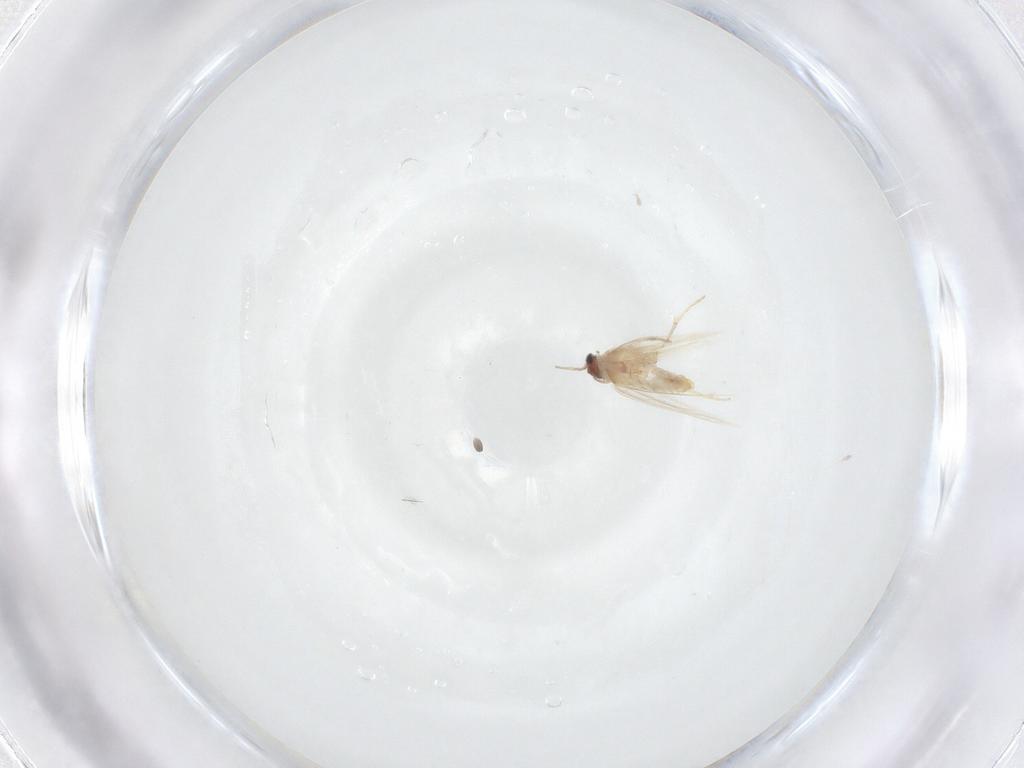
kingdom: Animalia
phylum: Arthropoda
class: Insecta
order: Lepidoptera
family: Nepticulidae
